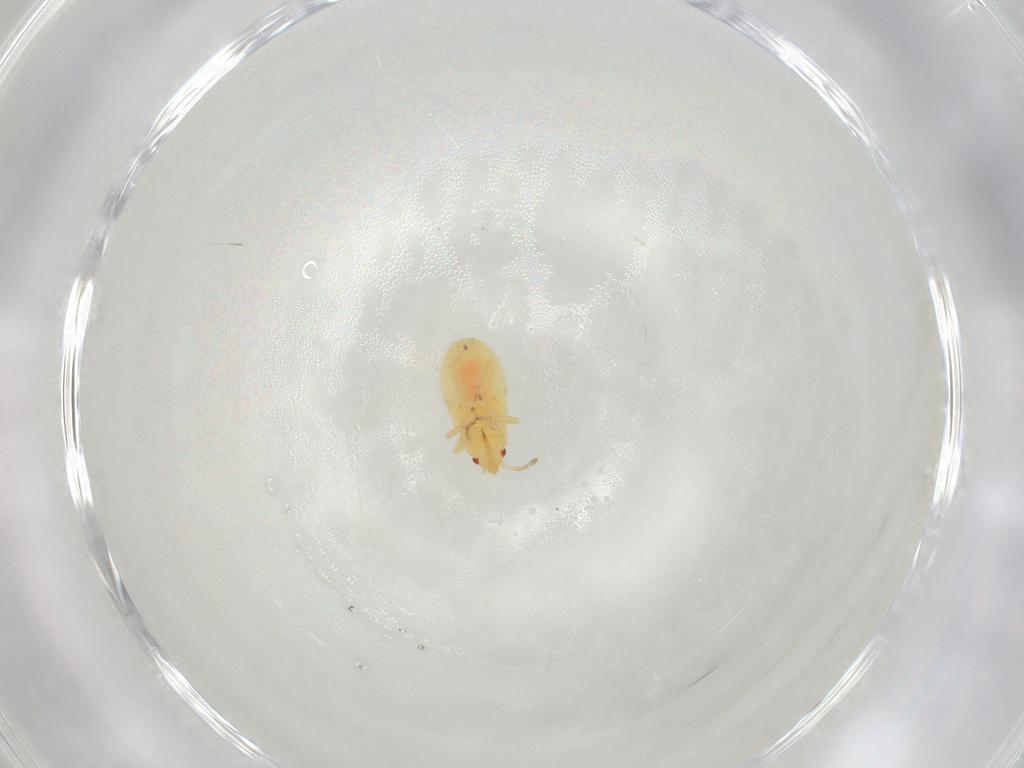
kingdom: Animalia
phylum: Arthropoda
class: Insecta
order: Hemiptera
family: Anthocoridae
